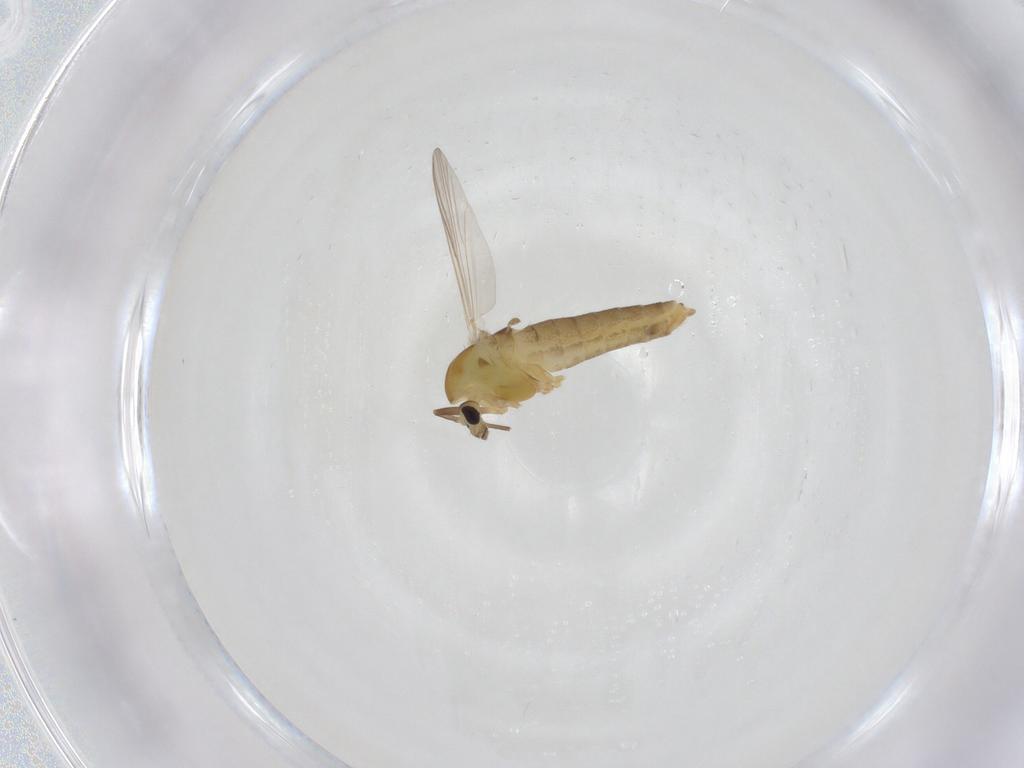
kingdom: Animalia
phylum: Arthropoda
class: Insecta
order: Diptera
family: Chironomidae
